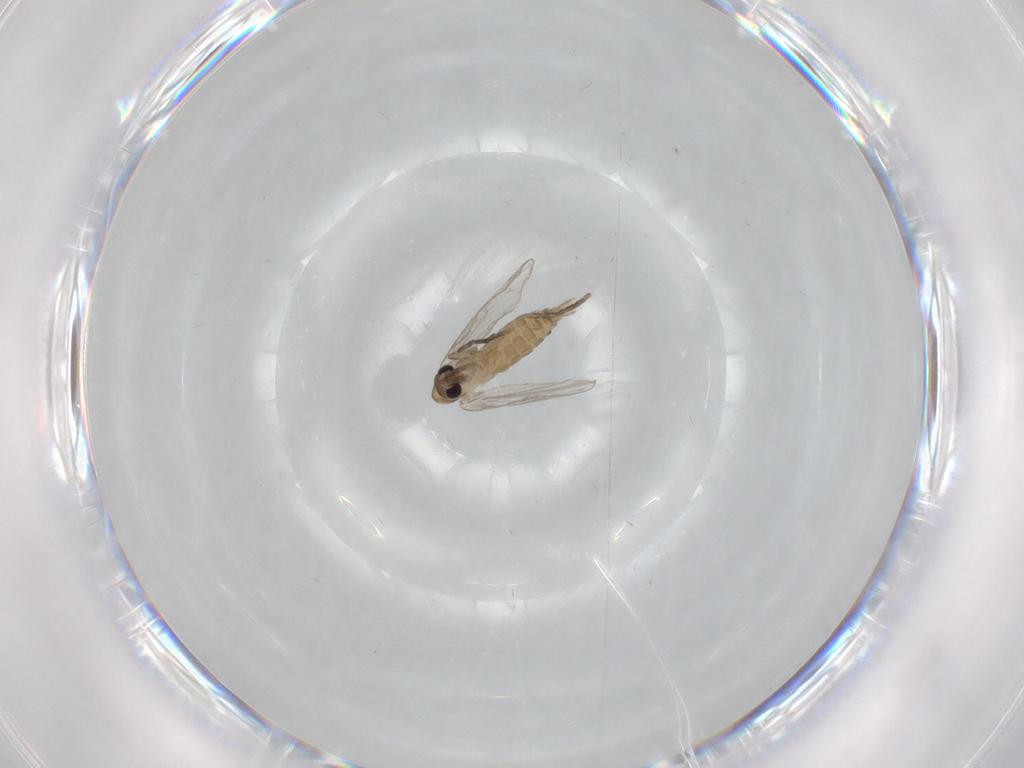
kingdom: Animalia
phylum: Arthropoda
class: Insecta
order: Diptera
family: Psychodidae
